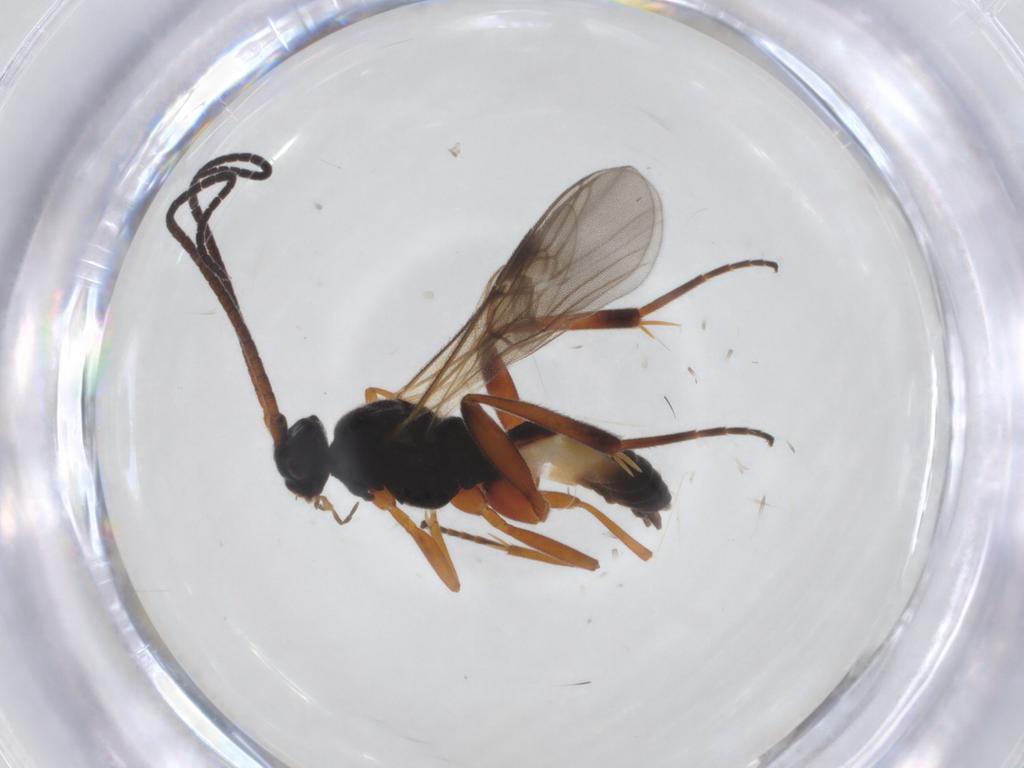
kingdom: Animalia
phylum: Arthropoda
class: Insecta
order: Hymenoptera
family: Braconidae
